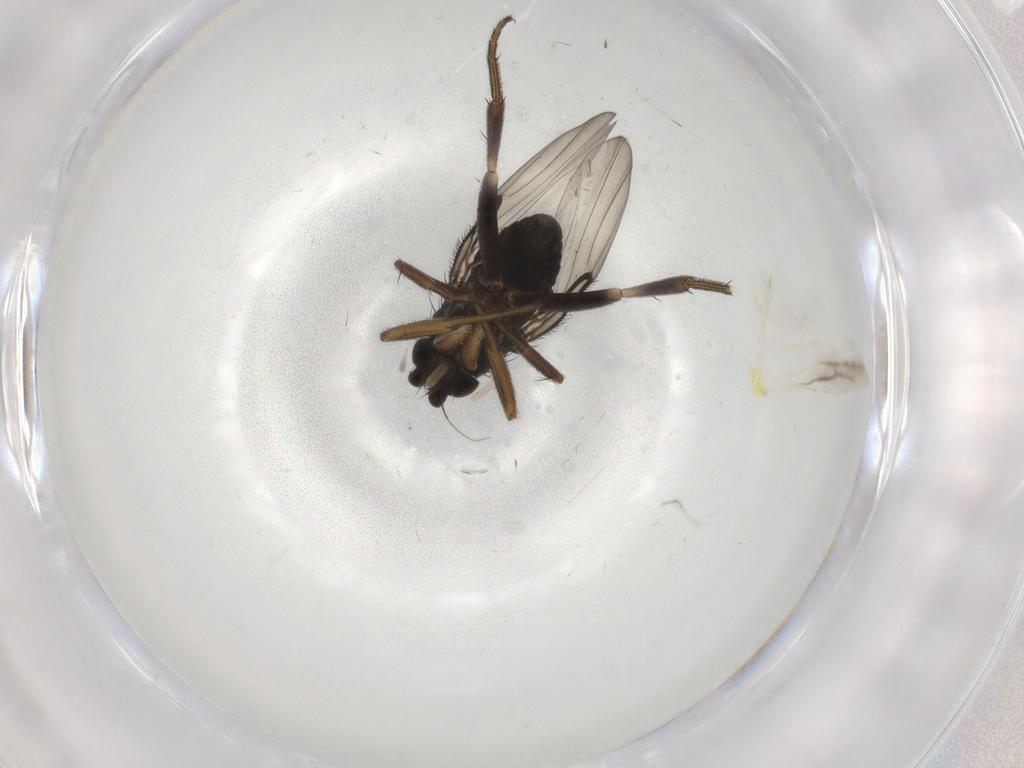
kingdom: Animalia
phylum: Arthropoda
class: Insecta
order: Diptera
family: Phoridae
